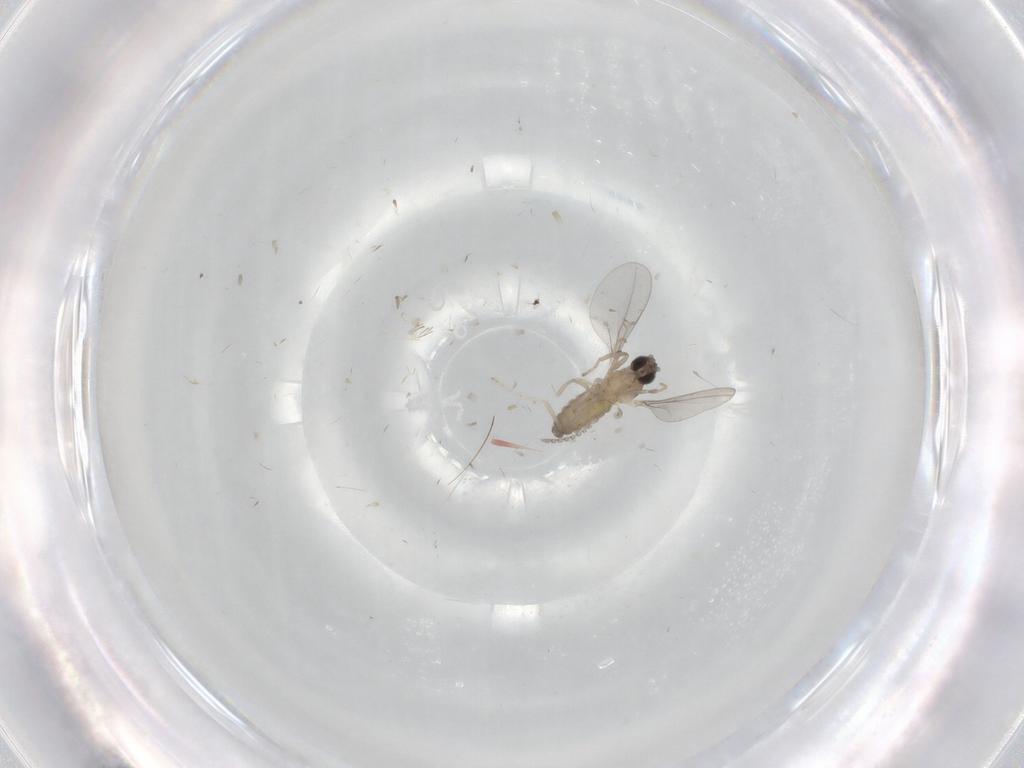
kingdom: Animalia
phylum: Arthropoda
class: Insecta
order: Diptera
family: Cecidomyiidae
